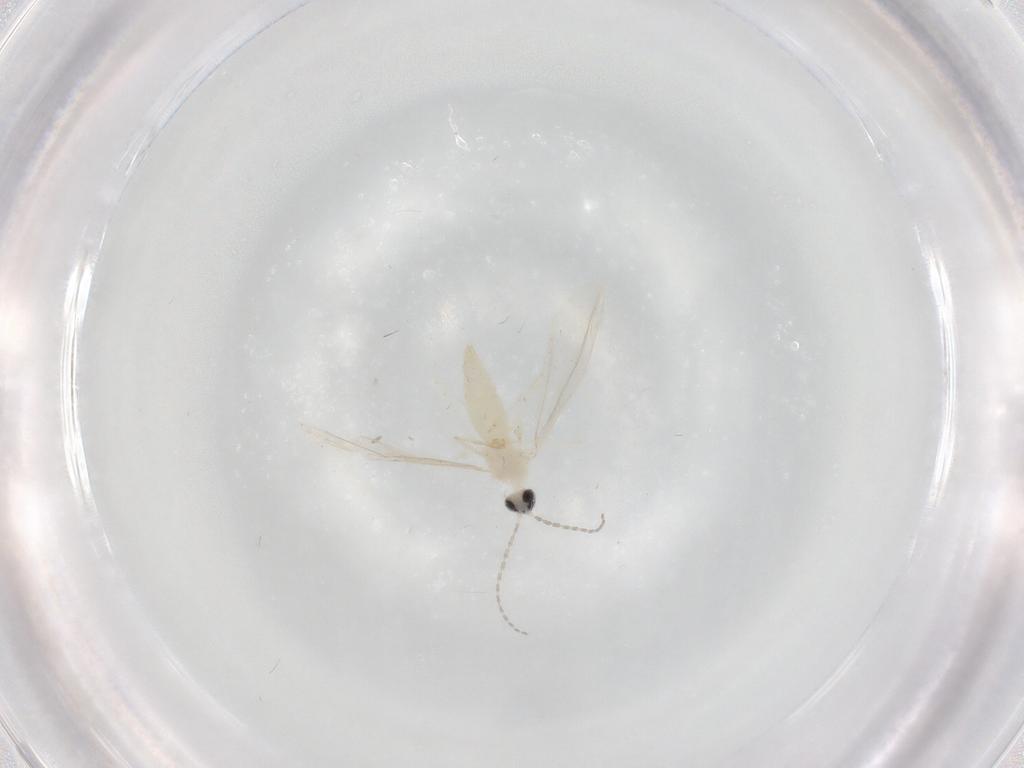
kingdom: Animalia
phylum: Arthropoda
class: Insecta
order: Diptera
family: Cecidomyiidae
